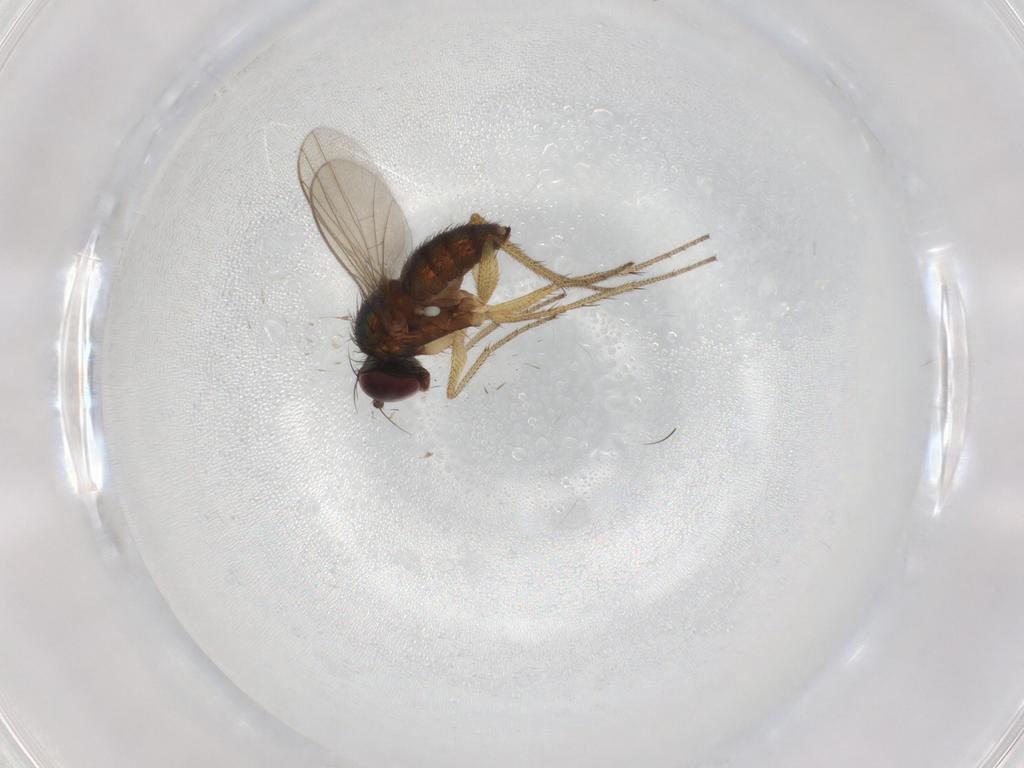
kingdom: Animalia
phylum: Arthropoda
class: Insecta
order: Diptera
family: Dolichopodidae
